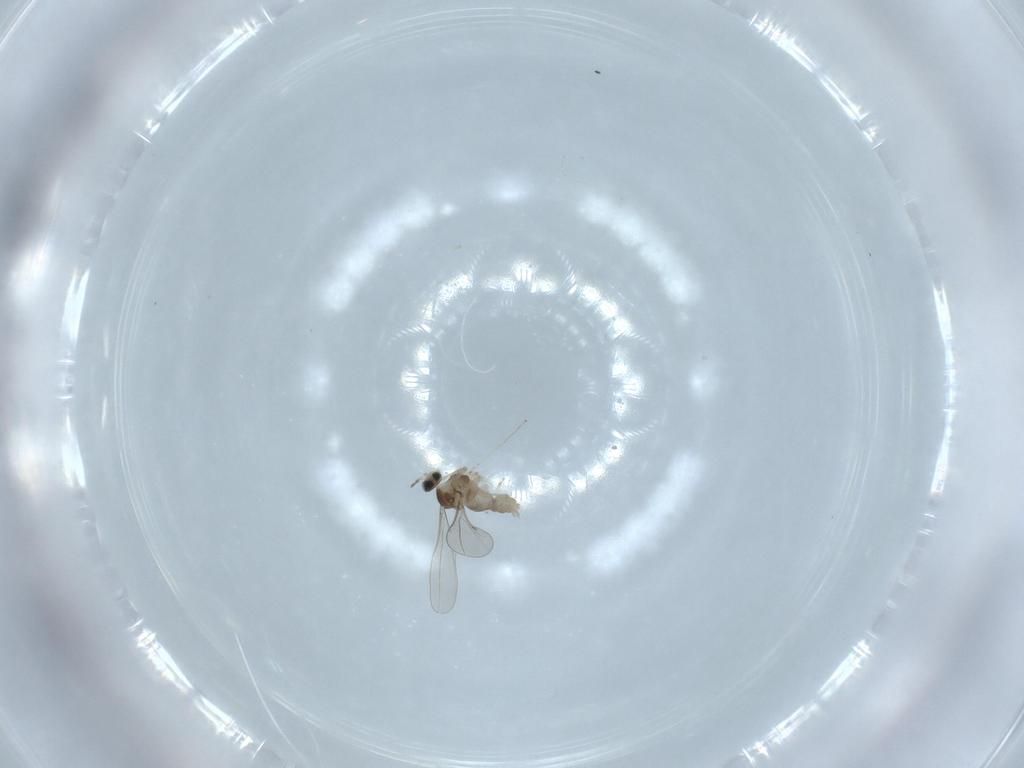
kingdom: Animalia
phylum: Arthropoda
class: Insecta
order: Diptera
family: Cecidomyiidae
